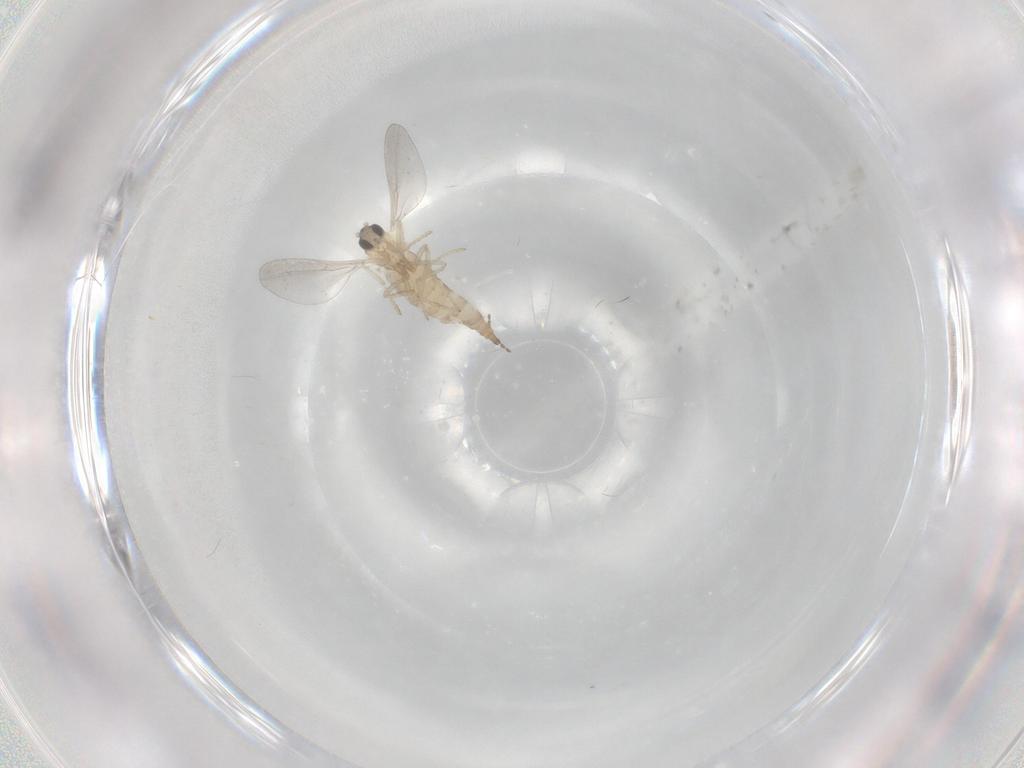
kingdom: Animalia
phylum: Arthropoda
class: Insecta
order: Diptera
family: Cecidomyiidae
